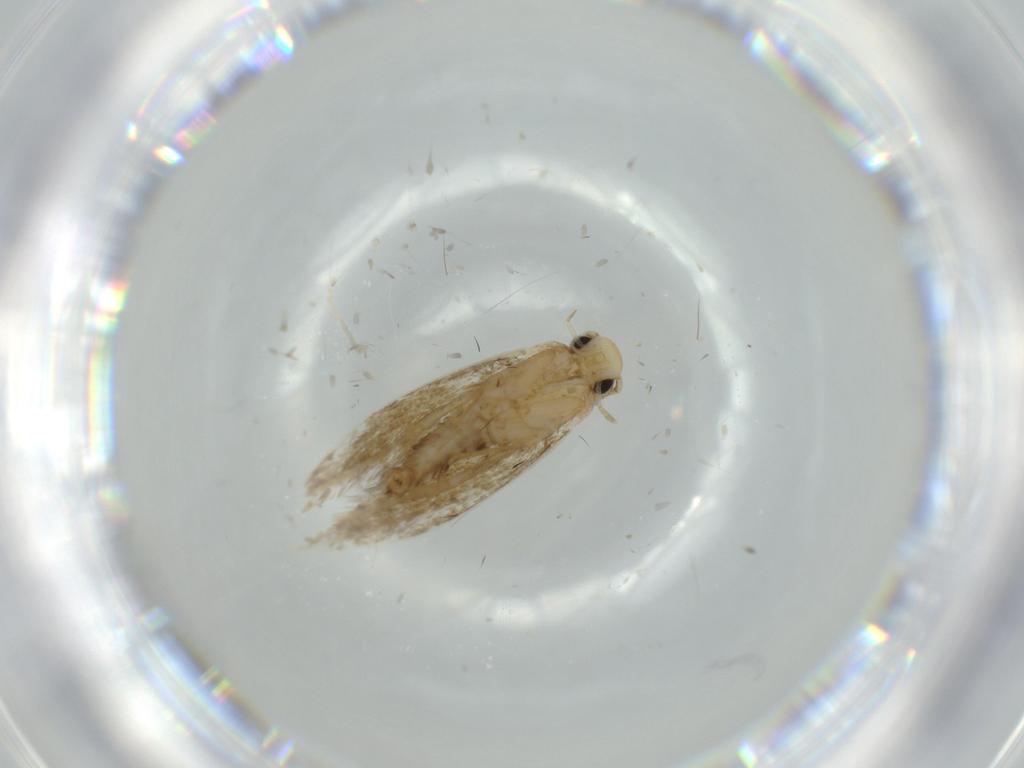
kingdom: Animalia
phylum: Arthropoda
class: Insecta
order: Lepidoptera
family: Tineidae
